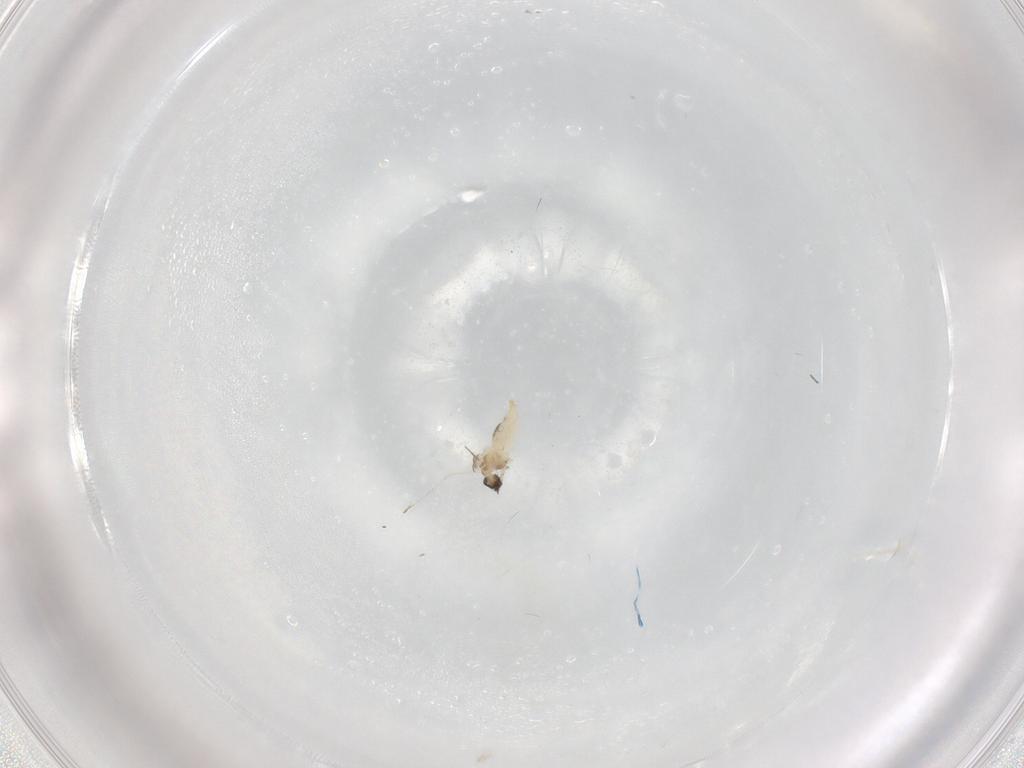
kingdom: Animalia
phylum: Arthropoda
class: Insecta
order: Diptera
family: Cecidomyiidae
